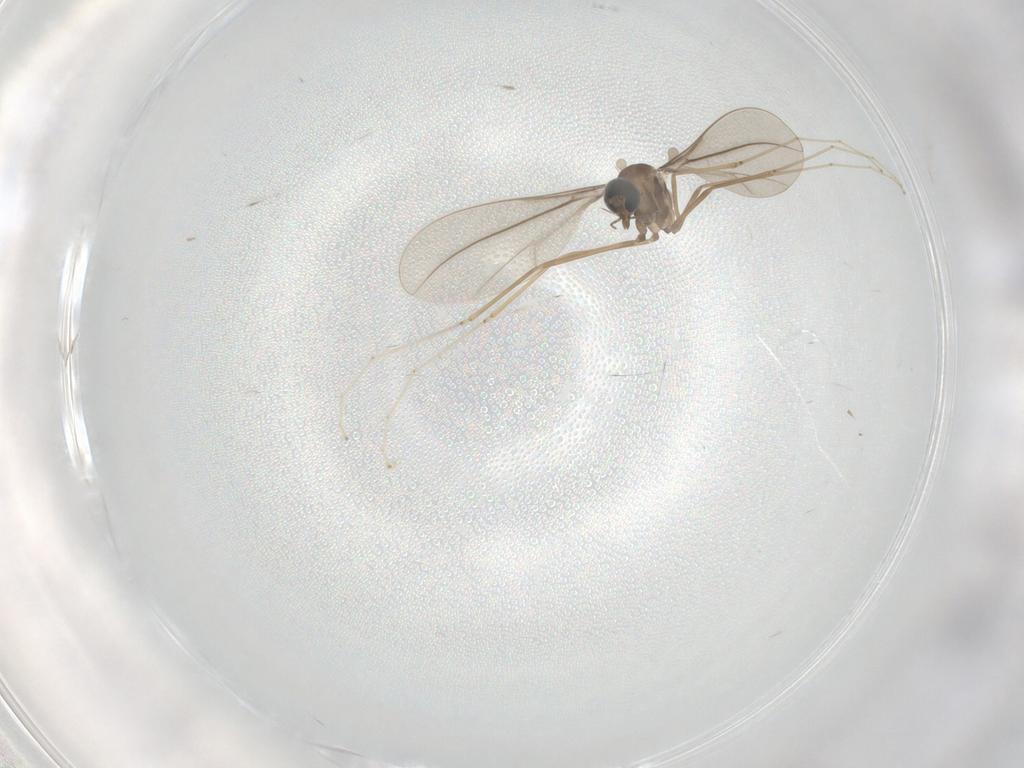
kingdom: Animalia
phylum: Arthropoda
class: Insecta
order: Diptera
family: Cecidomyiidae
